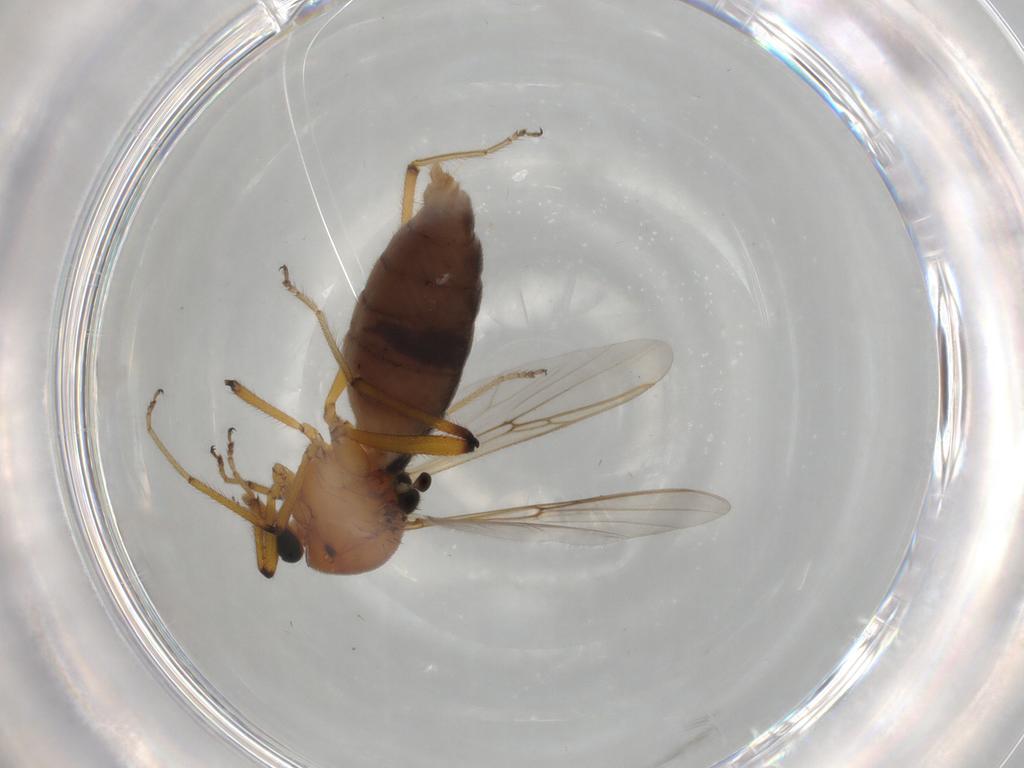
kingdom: Animalia
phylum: Arthropoda
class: Insecta
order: Diptera
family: Ceratopogonidae
